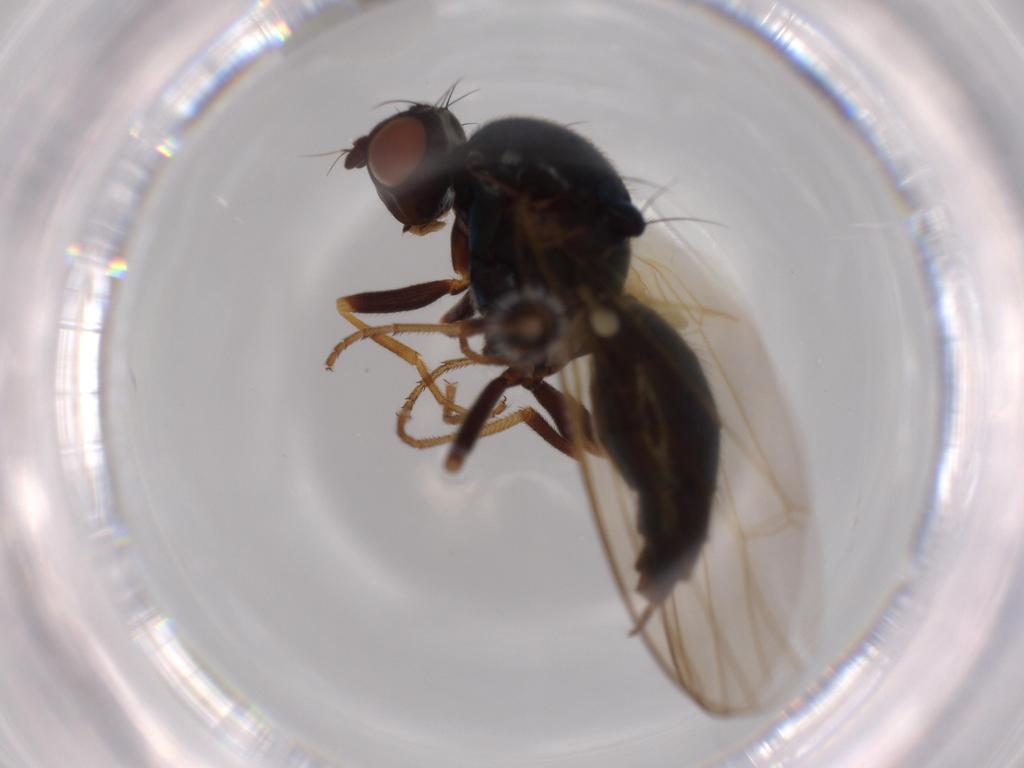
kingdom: Animalia
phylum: Arthropoda
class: Insecta
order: Diptera
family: Hybotidae
